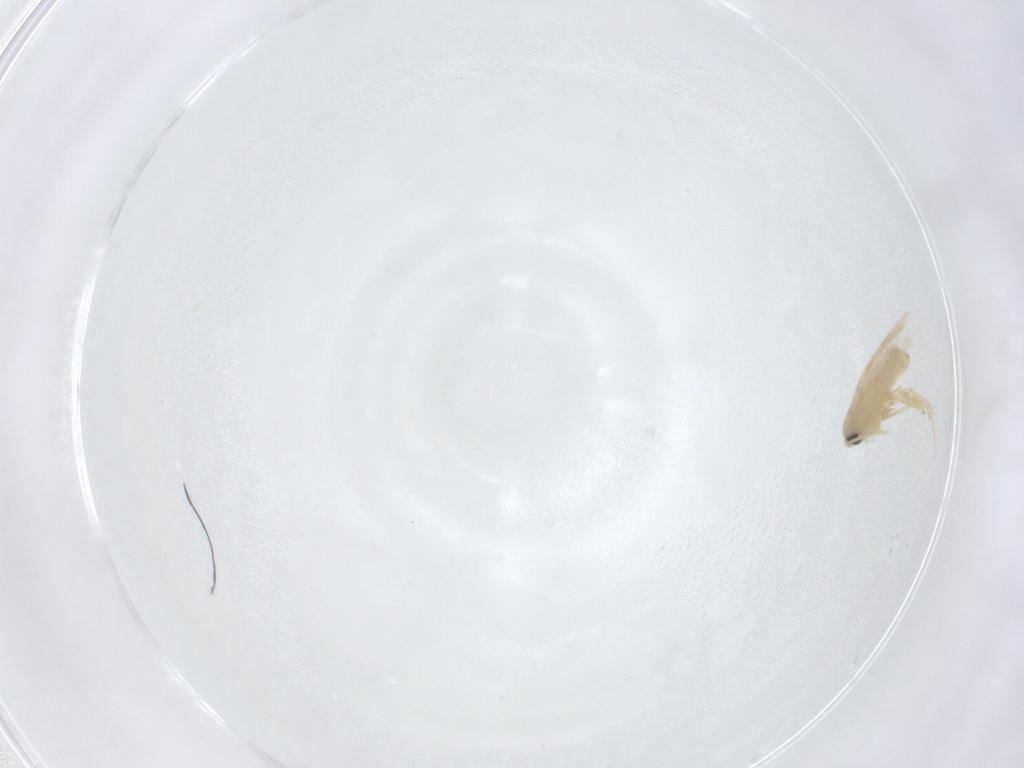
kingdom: Animalia
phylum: Arthropoda
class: Insecta
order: Lepidoptera
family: Nepticulidae
